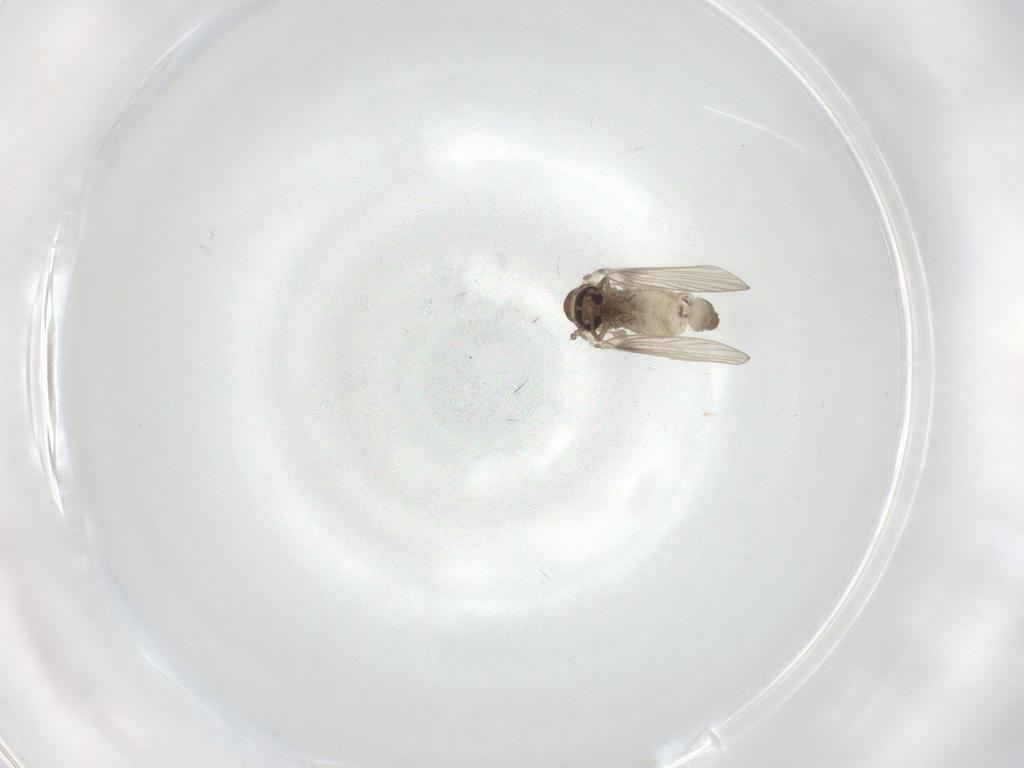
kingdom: Animalia
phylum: Arthropoda
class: Insecta
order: Diptera
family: Psychodidae
